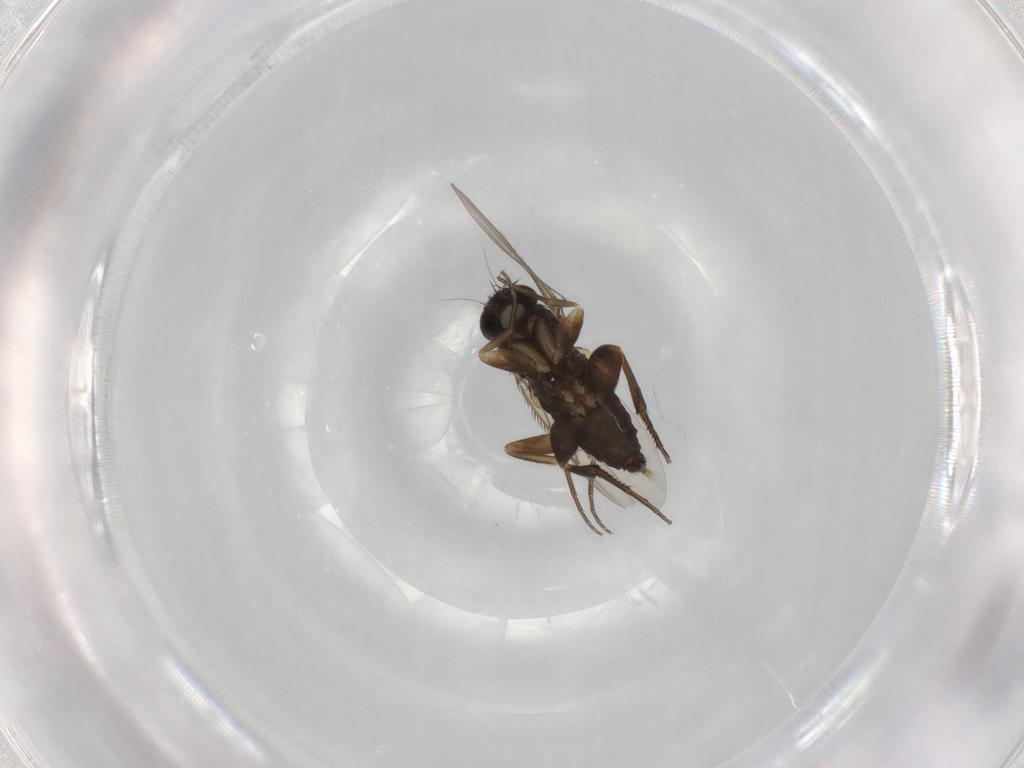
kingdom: Animalia
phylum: Arthropoda
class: Insecta
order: Diptera
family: Phoridae
